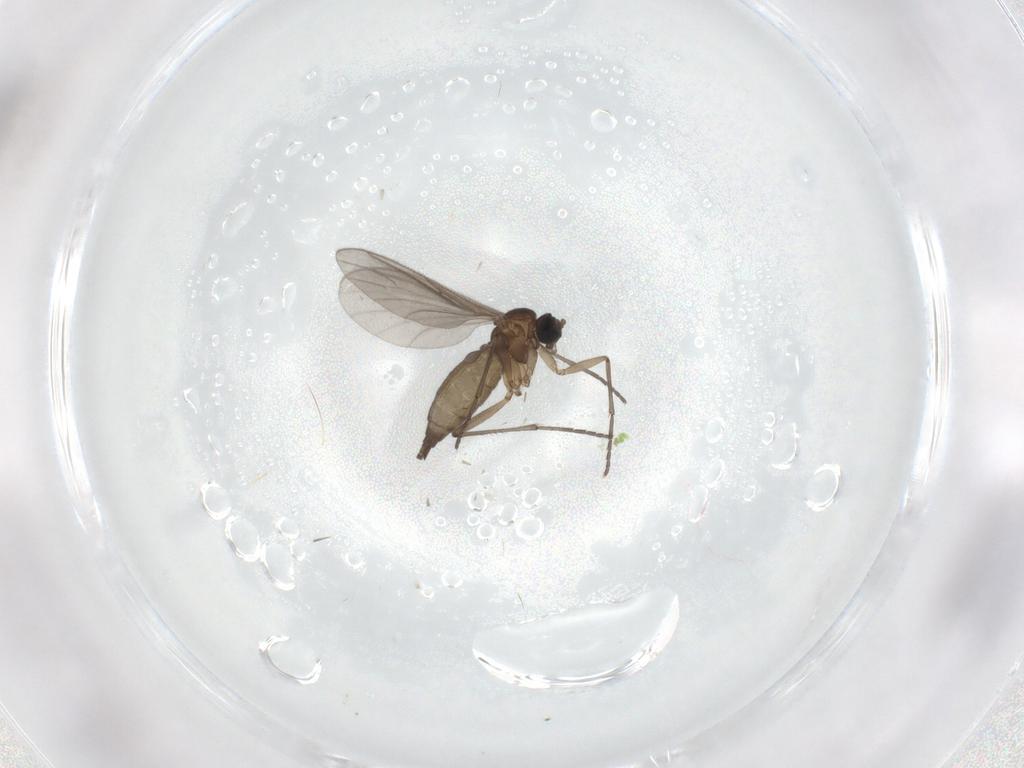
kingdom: Animalia
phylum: Arthropoda
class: Insecta
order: Diptera
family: Sciaridae
